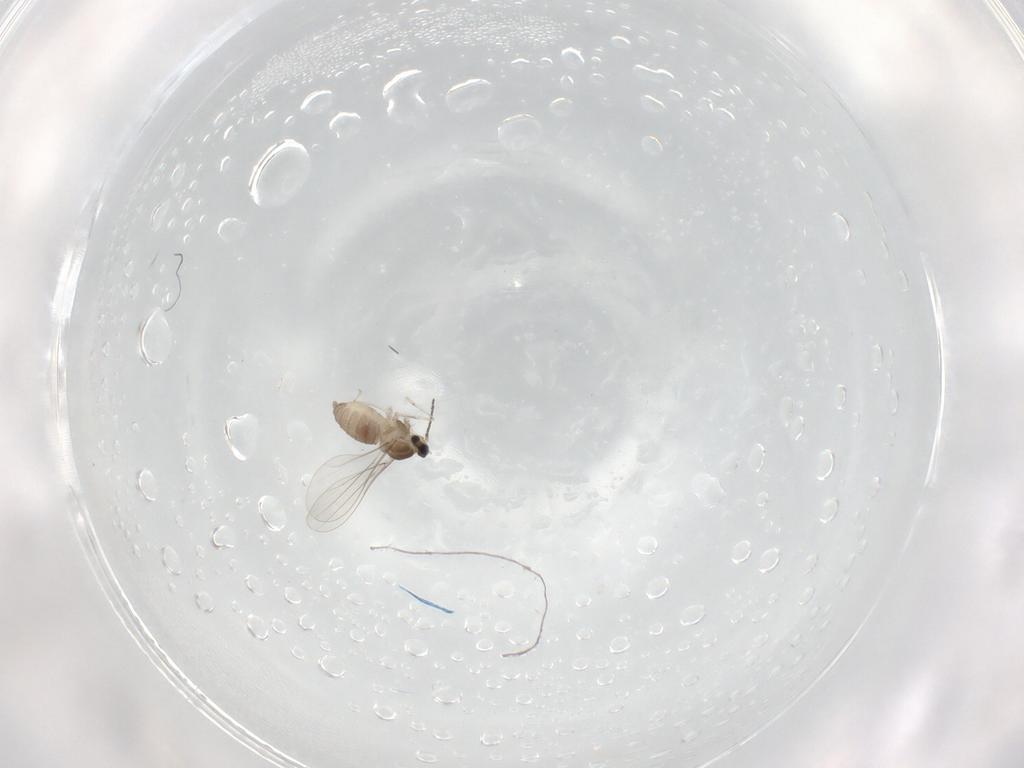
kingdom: Animalia
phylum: Arthropoda
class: Insecta
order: Diptera
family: Cecidomyiidae
